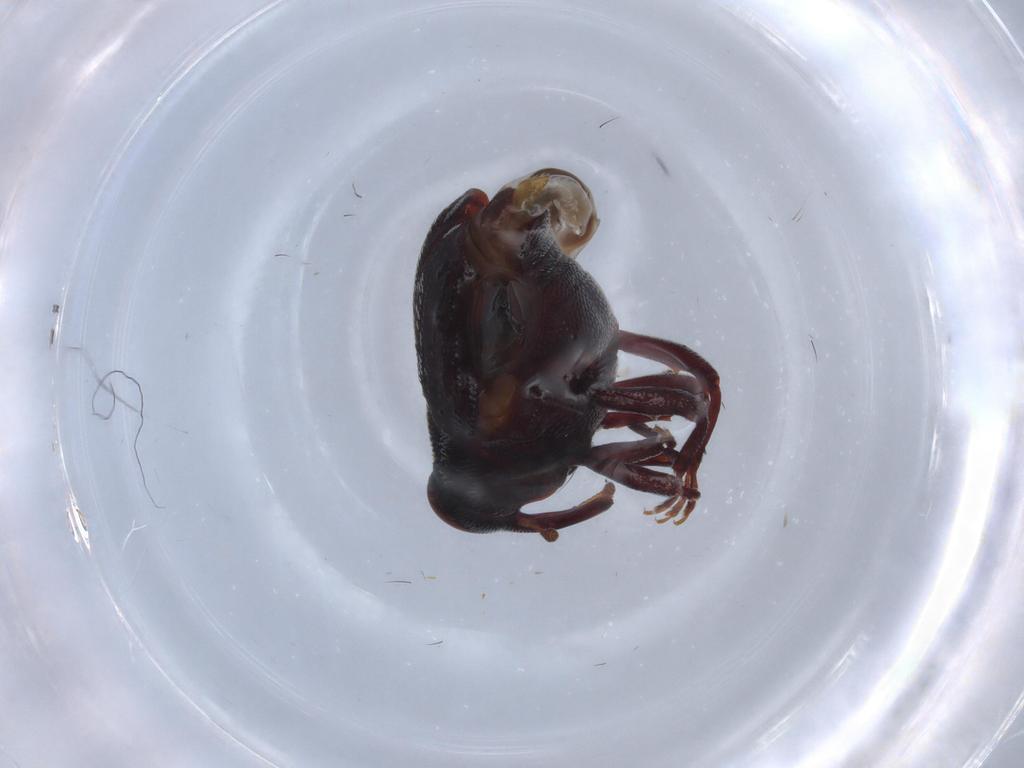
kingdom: Animalia
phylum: Arthropoda
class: Insecta
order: Coleoptera
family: Curculionidae
